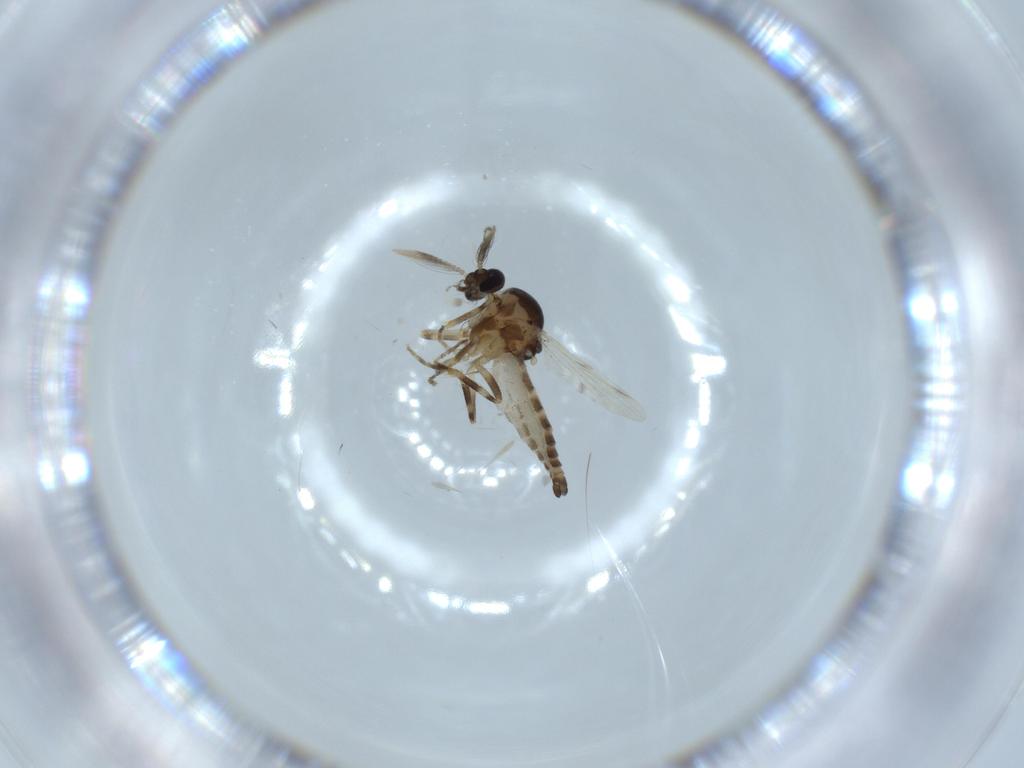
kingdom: Animalia
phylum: Arthropoda
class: Insecta
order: Diptera
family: Ceratopogonidae
